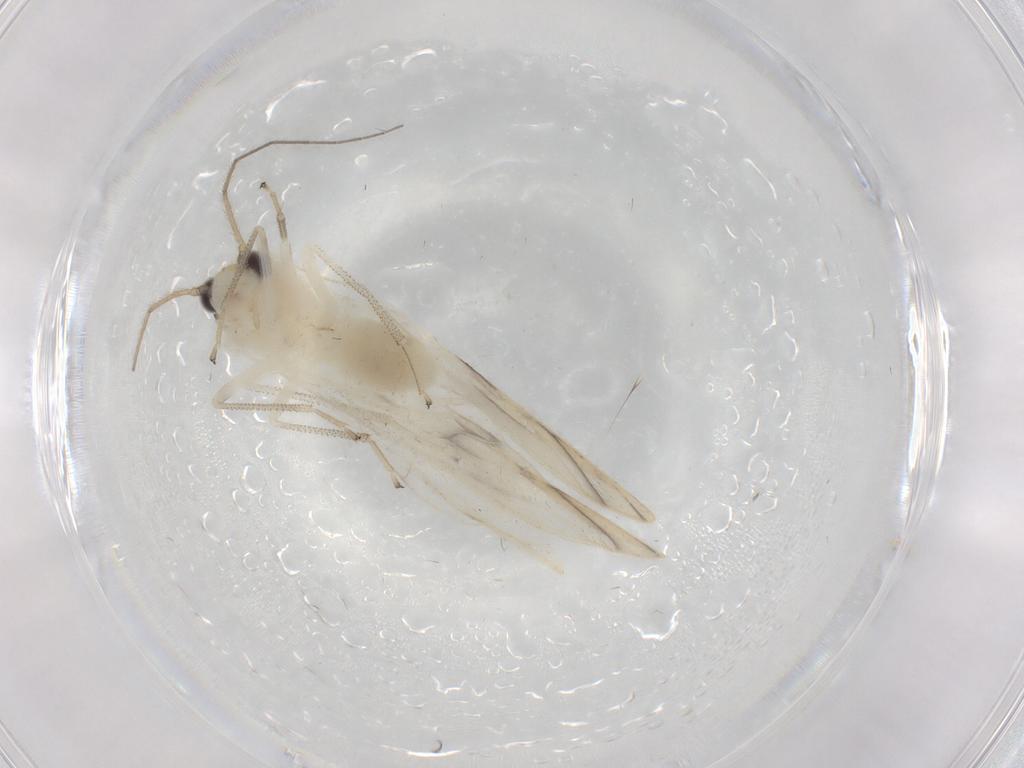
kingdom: Animalia
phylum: Arthropoda
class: Insecta
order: Psocodea
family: Caeciliusidae
